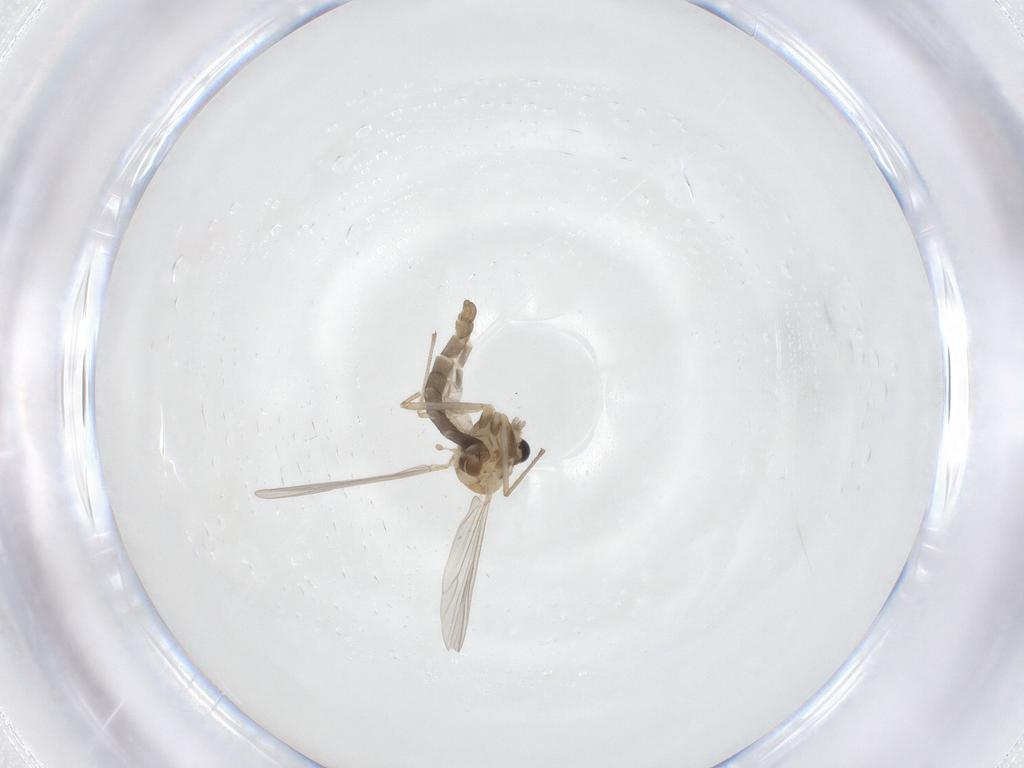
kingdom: Animalia
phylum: Arthropoda
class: Insecta
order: Diptera
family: Chironomidae
